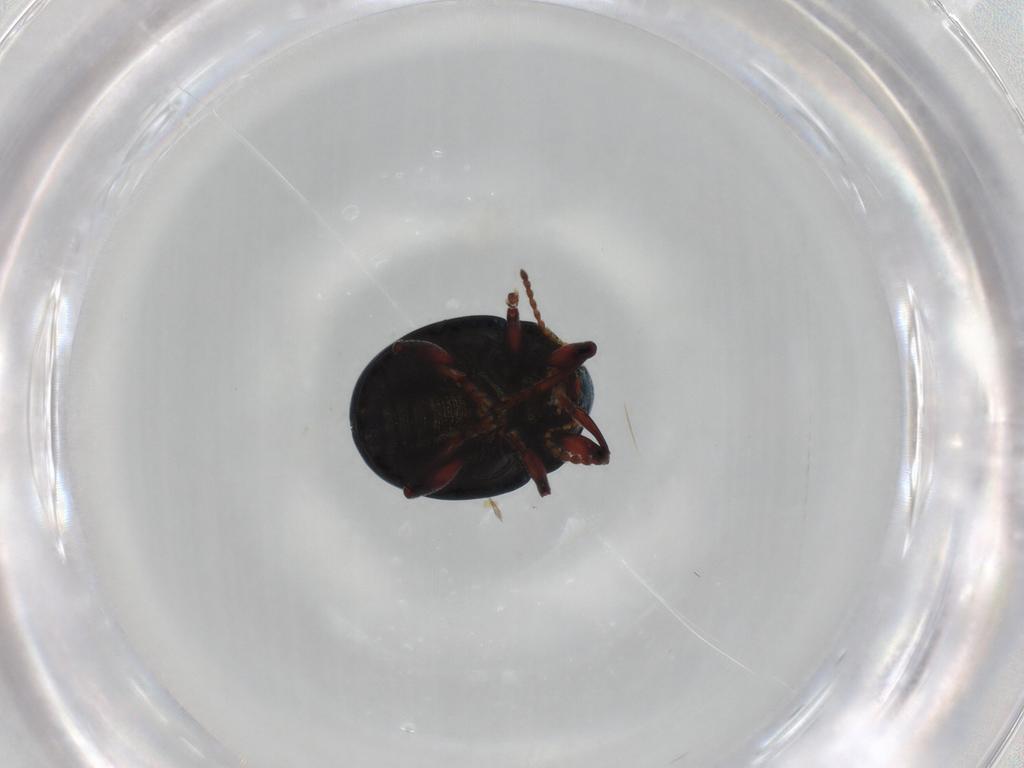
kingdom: Animalia
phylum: Arthropoda
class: Insecta
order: Coleoptera
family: Chrysomelidae
